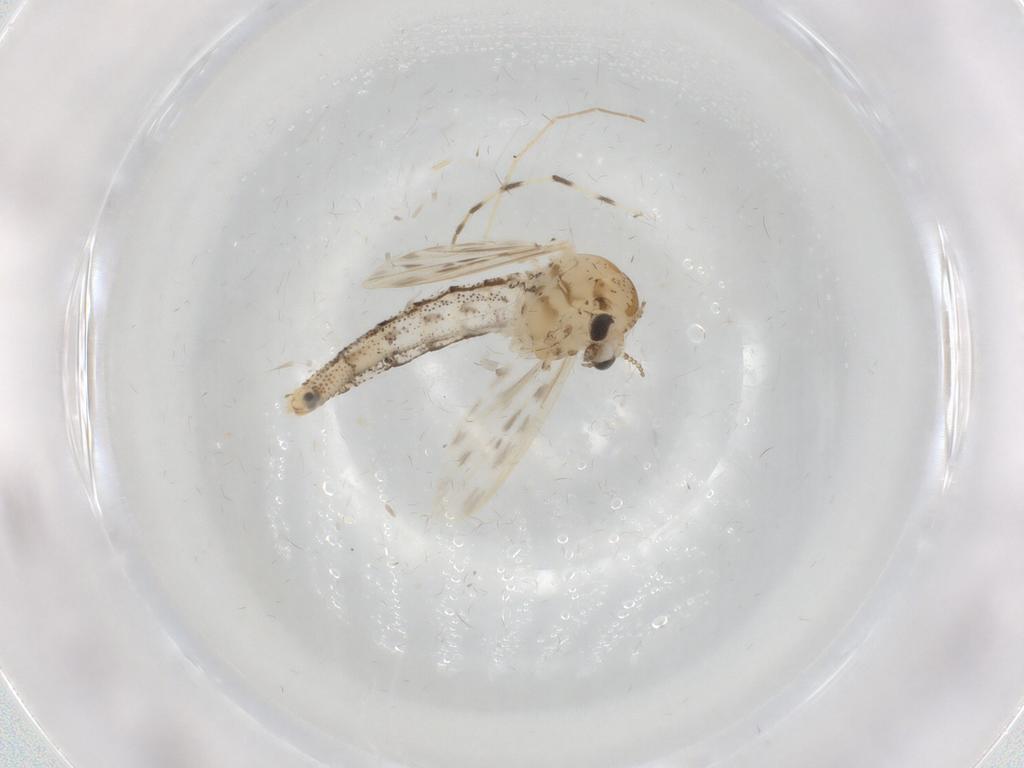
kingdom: Animalia
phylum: Arthropoda
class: Insecta
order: Diptera
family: Chaoboridae
